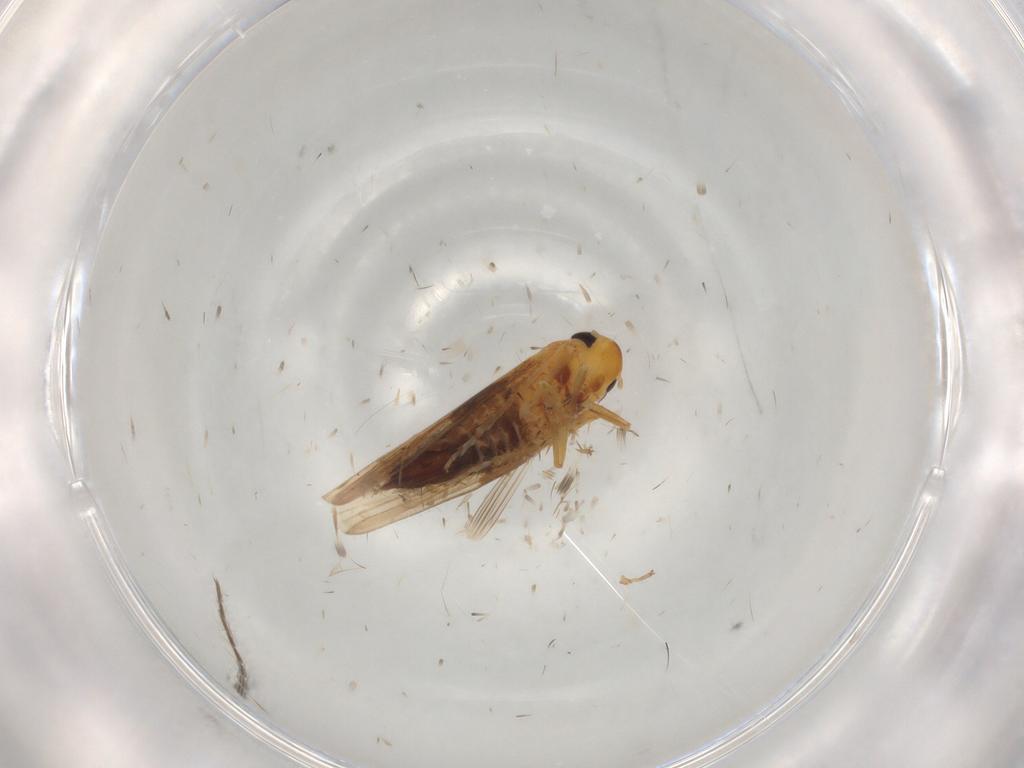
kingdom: Animalia
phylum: Arthropoda
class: Insecta
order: Hemiptera
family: Cicadellidae
